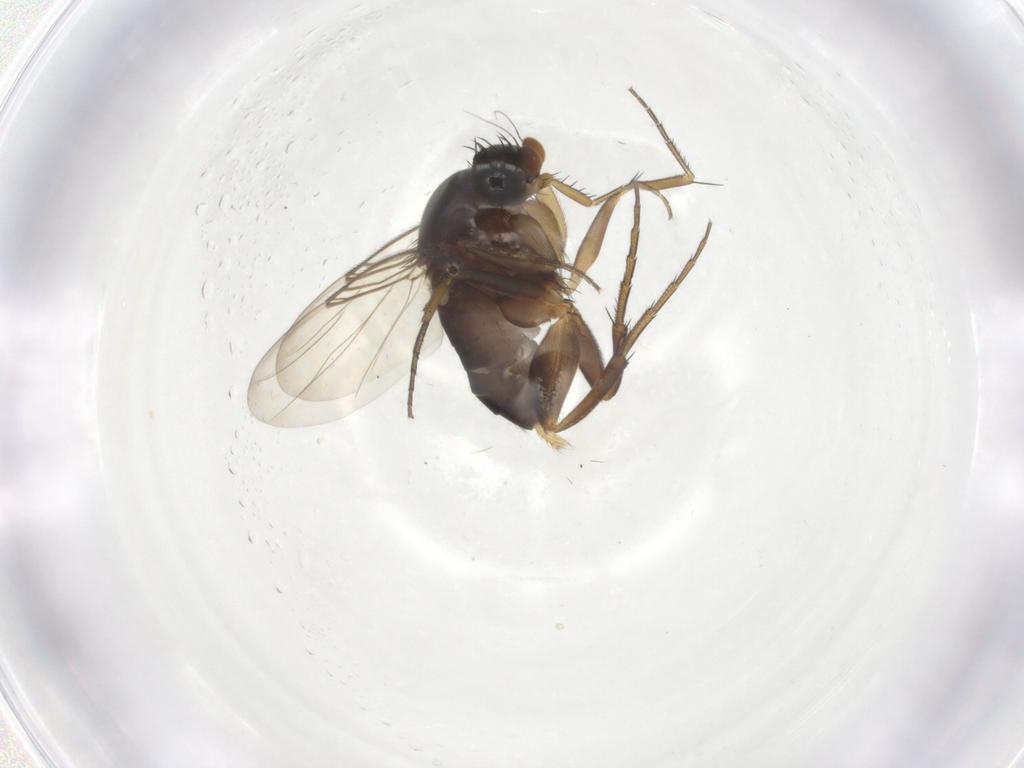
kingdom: Animalia
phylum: Arthropoda
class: Insecta
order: Diptera
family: Phoridae
